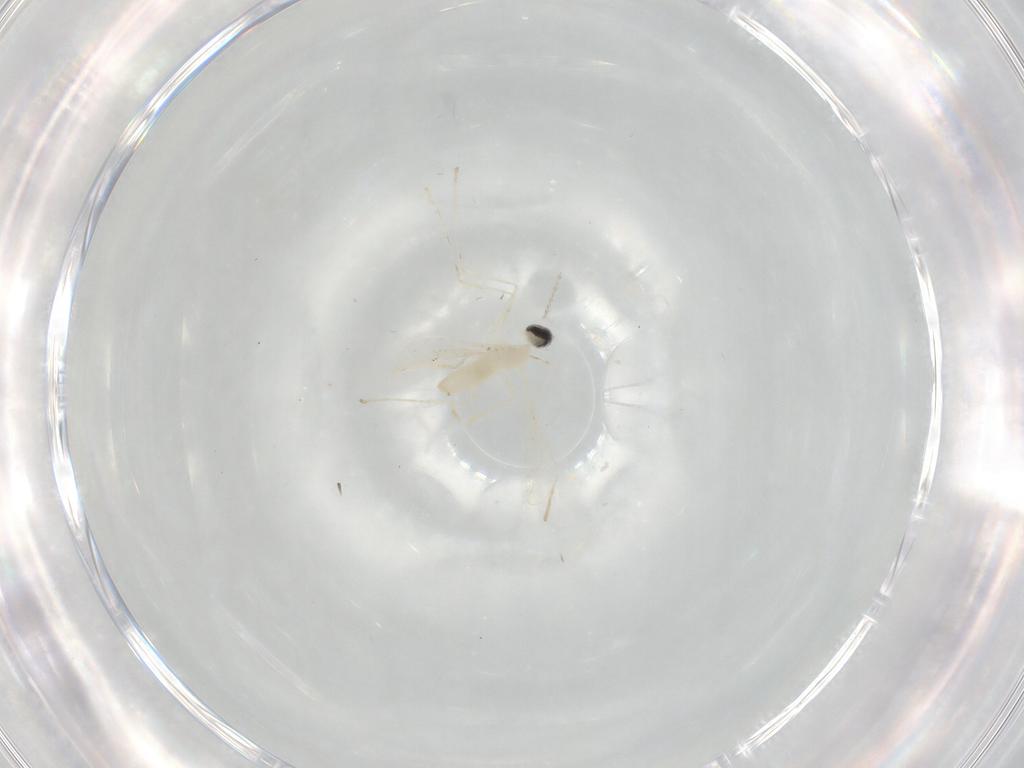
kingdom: Animalia
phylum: Arthropoda
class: Insecta
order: Diptera
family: Cecidomyiidae
